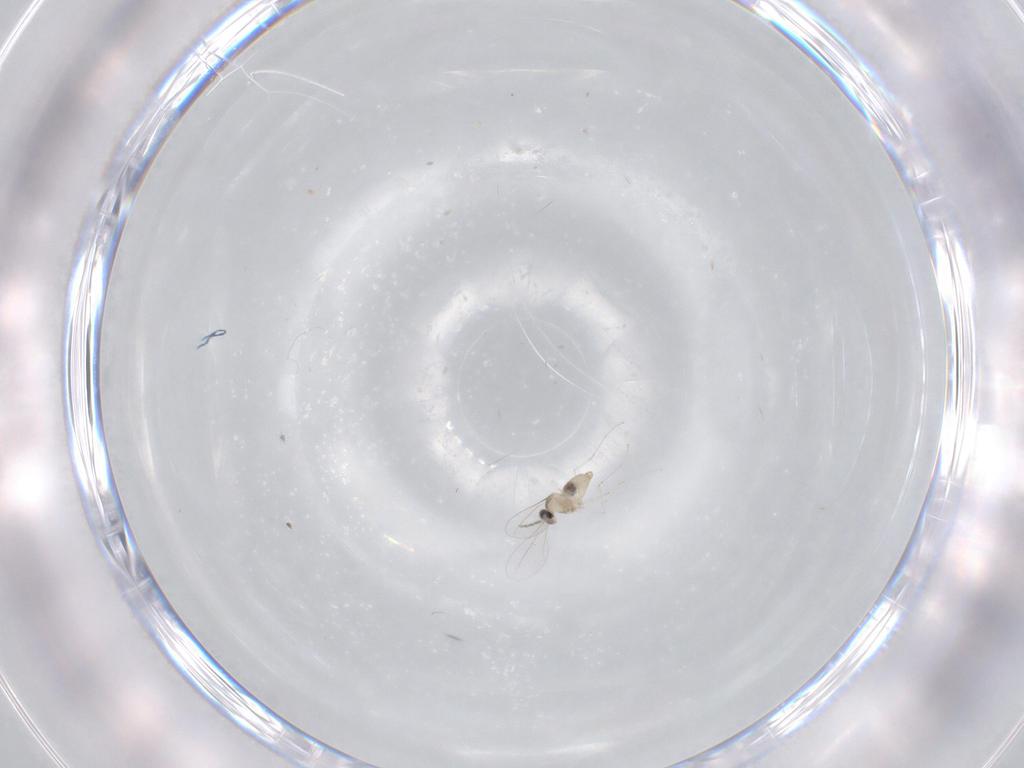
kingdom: Animalia
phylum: Arthropoda
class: Insecta
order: Diptera
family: Cecidomyiidae
